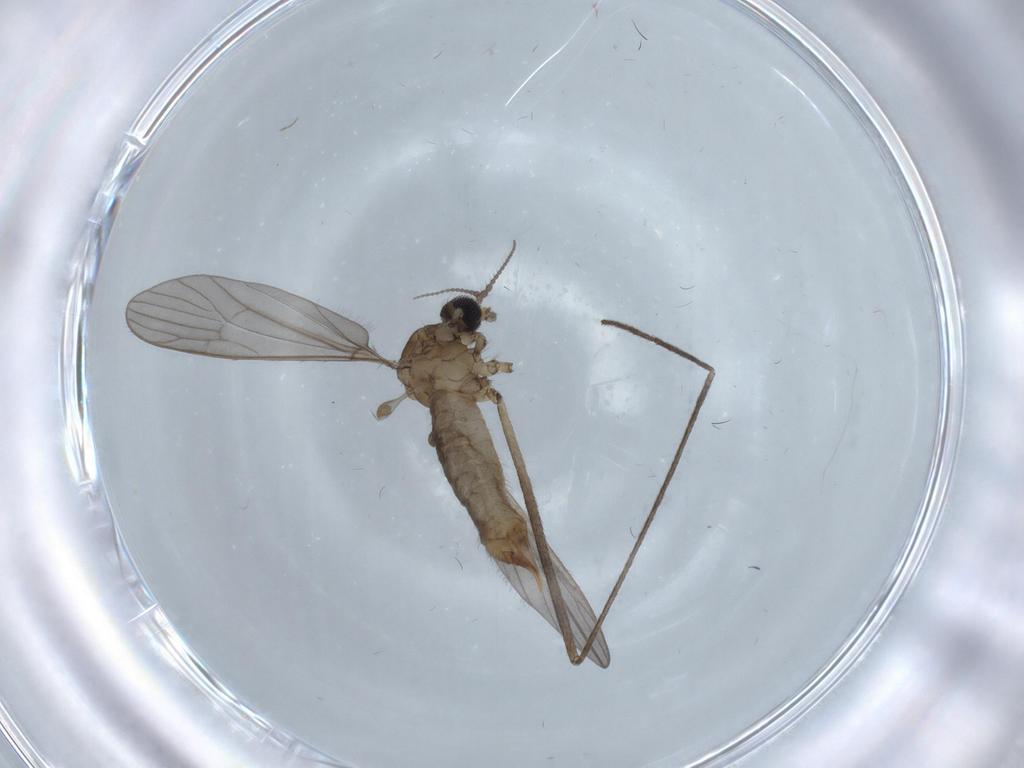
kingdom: Animalia
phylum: Arthropoda
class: Insecta
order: Diptera
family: Limoniidae
